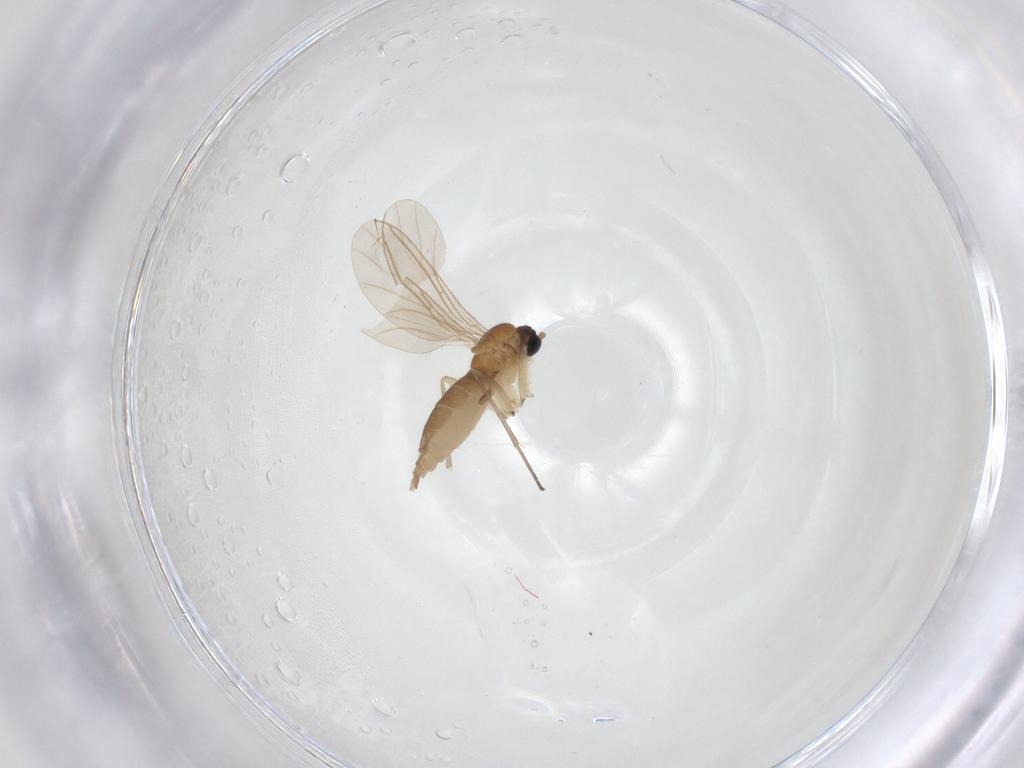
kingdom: Animalia
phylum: Arthropoda
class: Insecta
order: Diptera
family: Sciaridae
